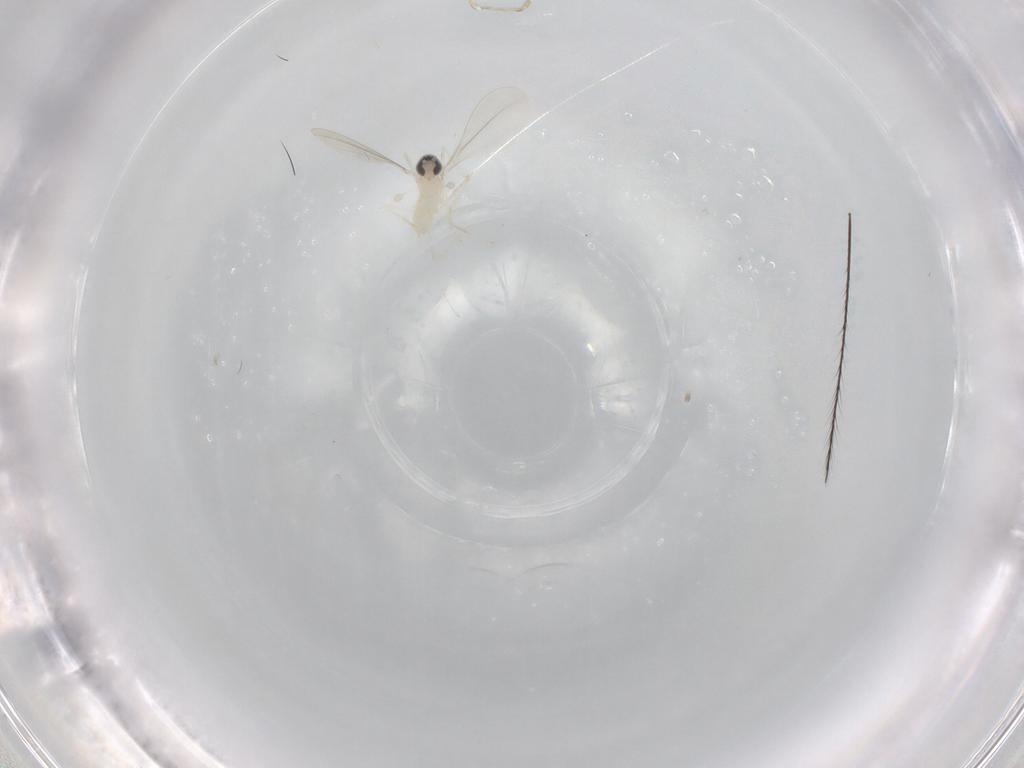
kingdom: Animalia
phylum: Arthropoda
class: Insecta
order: Diptera
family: Cecidomyiidae
